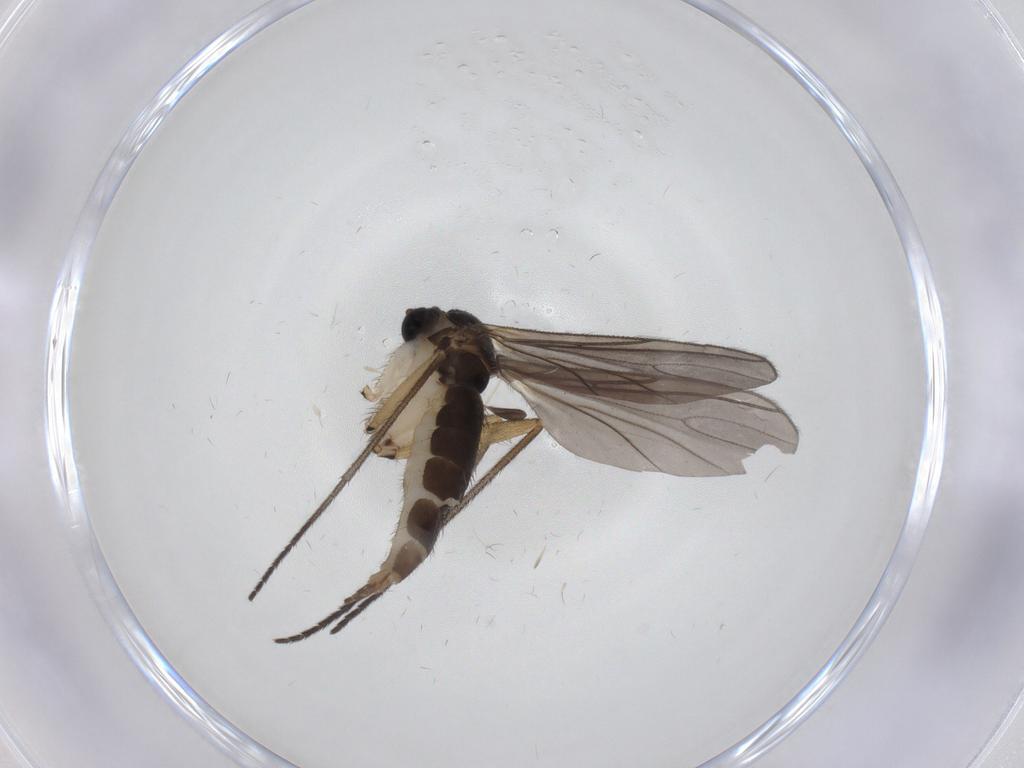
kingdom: Animalia
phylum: Arthropoda
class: Insecta
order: Diptera
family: Sciaridae
